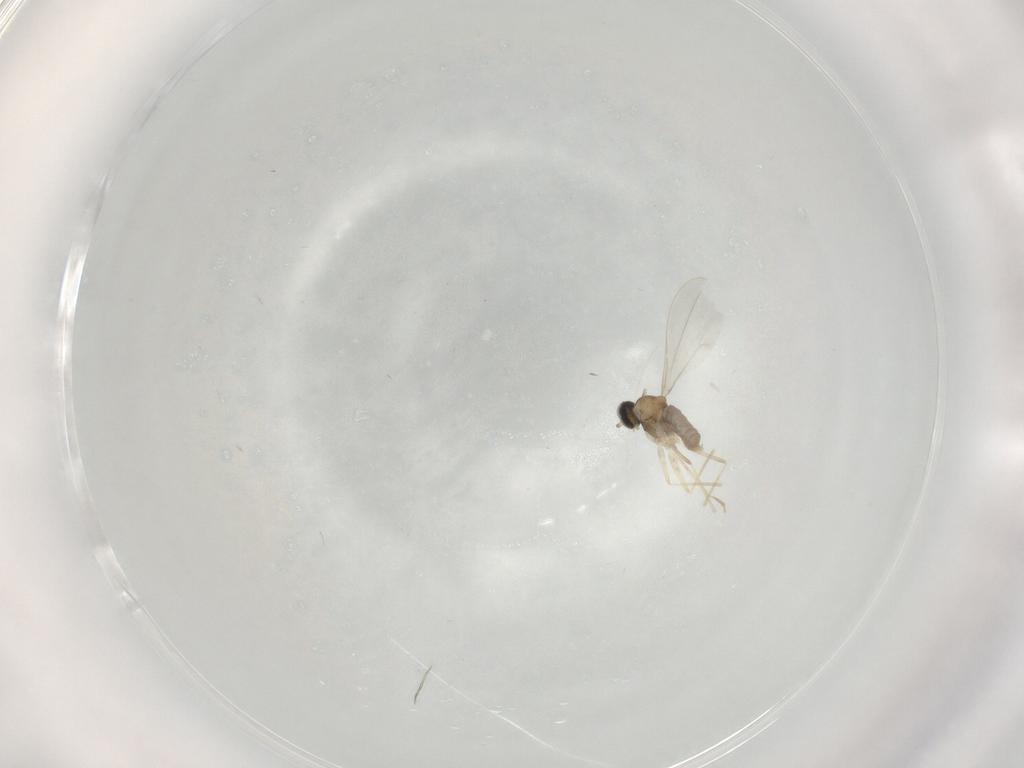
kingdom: Animalia
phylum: Arthropoda
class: Insecta
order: Diptera
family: Cecidomyiidae
